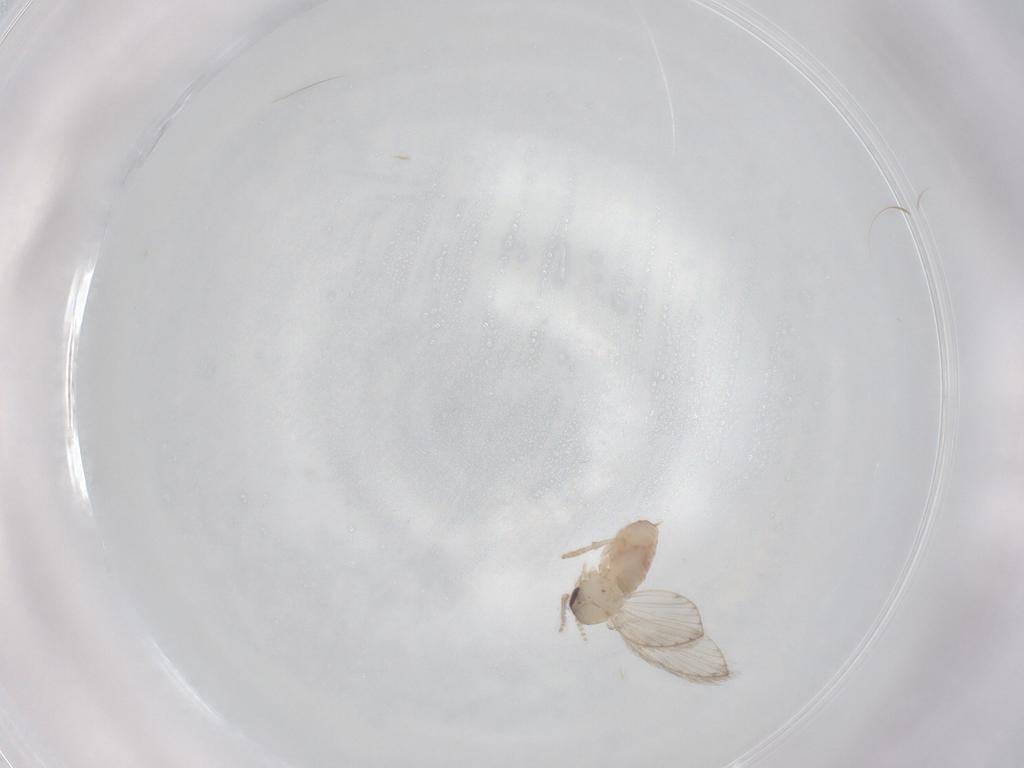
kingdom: Animalia
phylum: Arthropoda
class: Insecta
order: Diptera
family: Psychodidae
